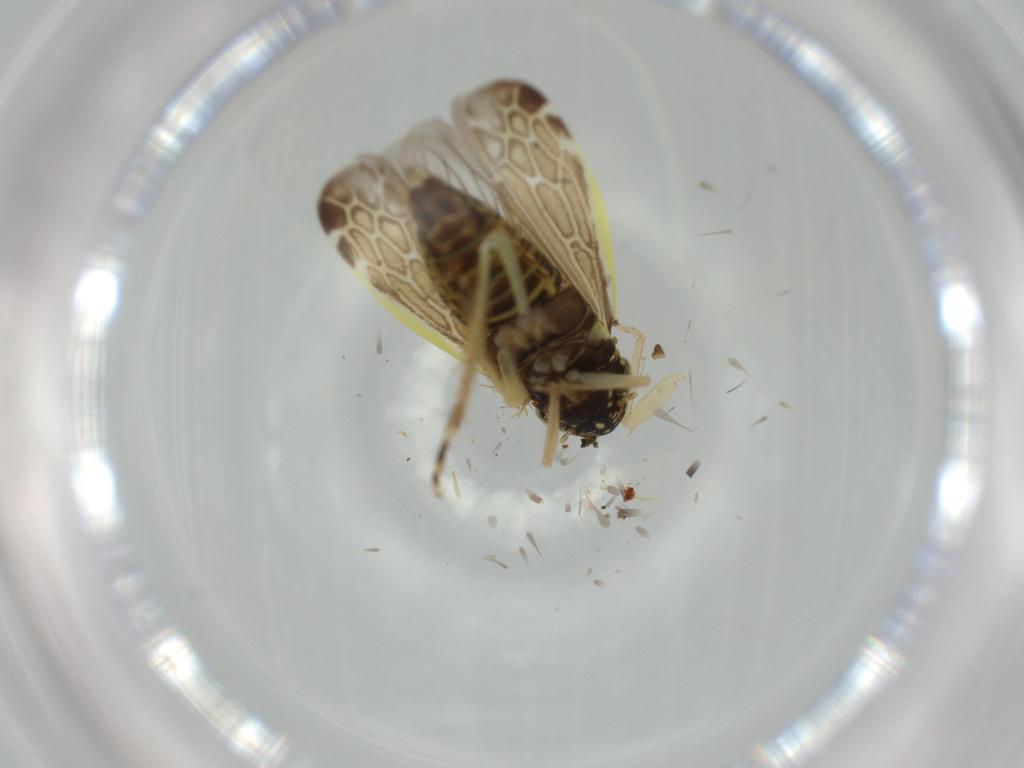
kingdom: Animalia
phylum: Arthropoda
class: Insecta
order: Hemiptera
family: Cicadellidae
